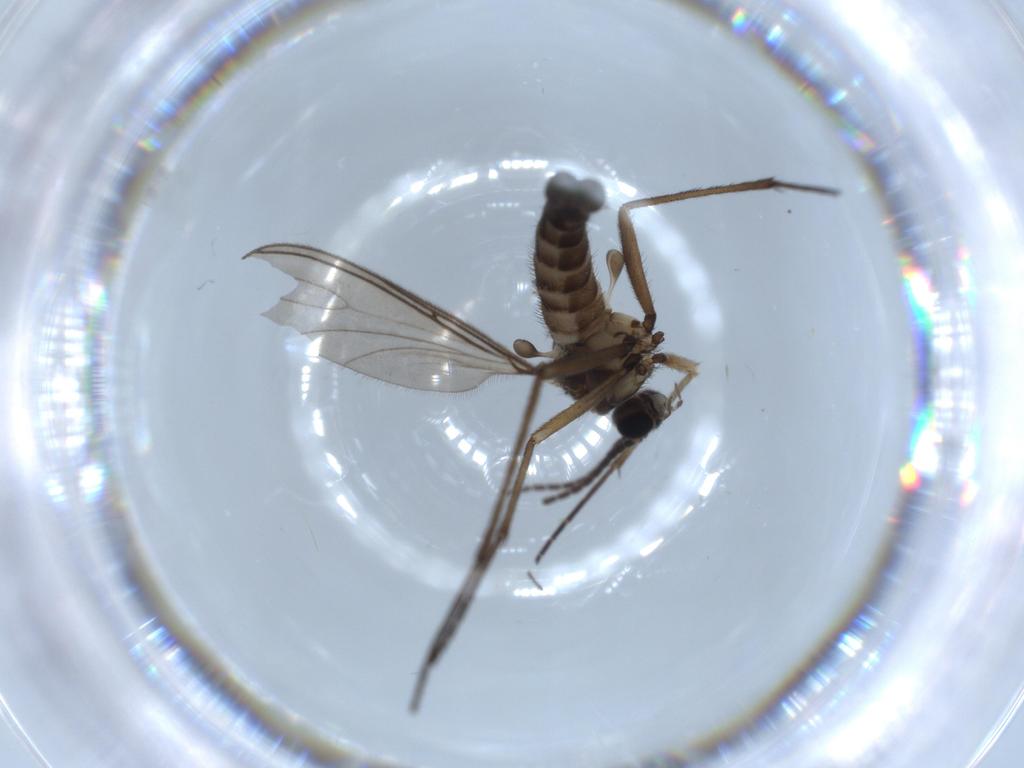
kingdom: Animalia
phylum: Arthropoda
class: Insecta
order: Diptera
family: Sciaridae
